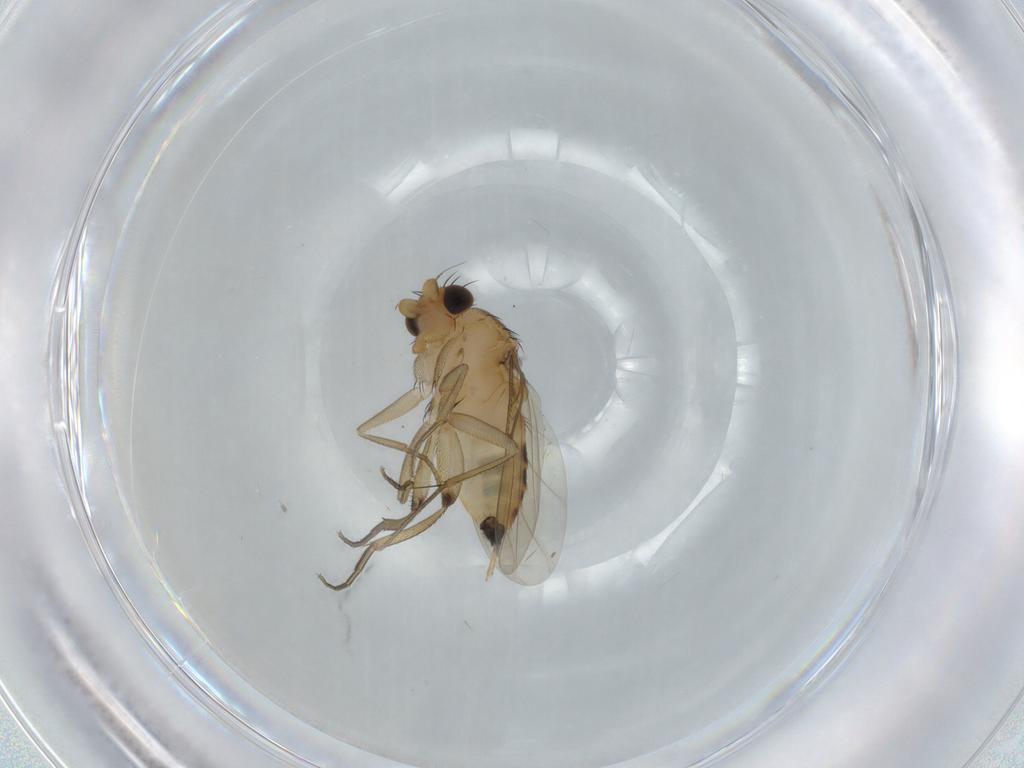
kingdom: Animalia
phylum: Arthropoda
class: Insecta
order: Diptera
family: Phoridae
